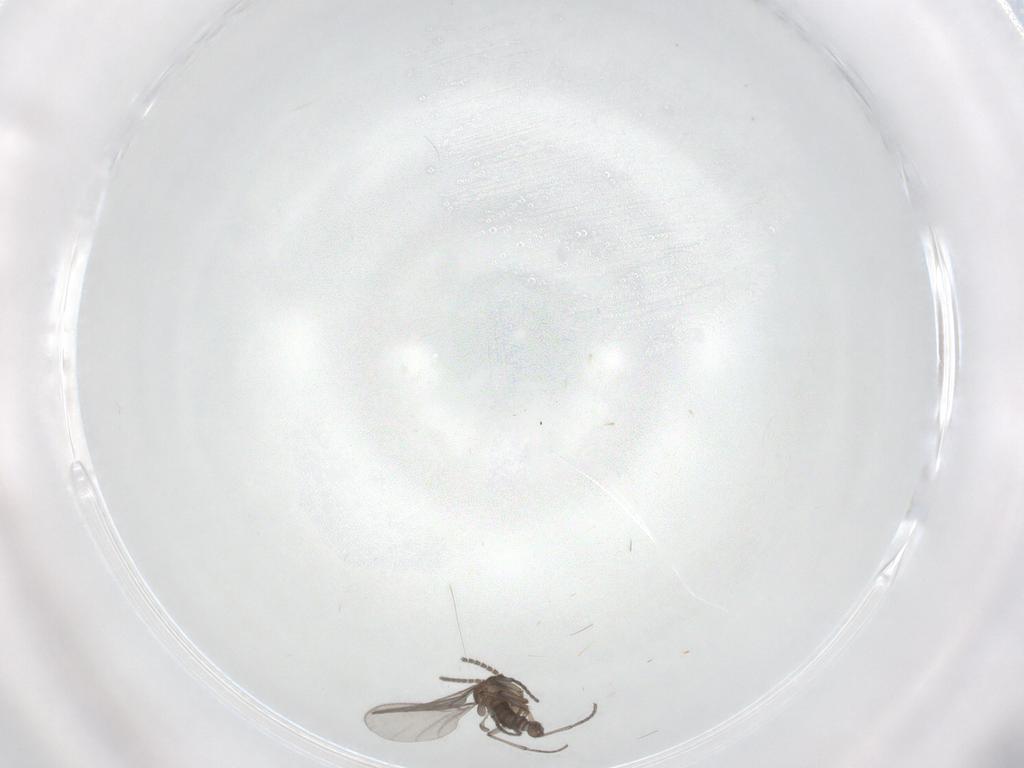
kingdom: Animalia
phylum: Arthropoda
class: Insecta
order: Diptera
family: Sciaridae
